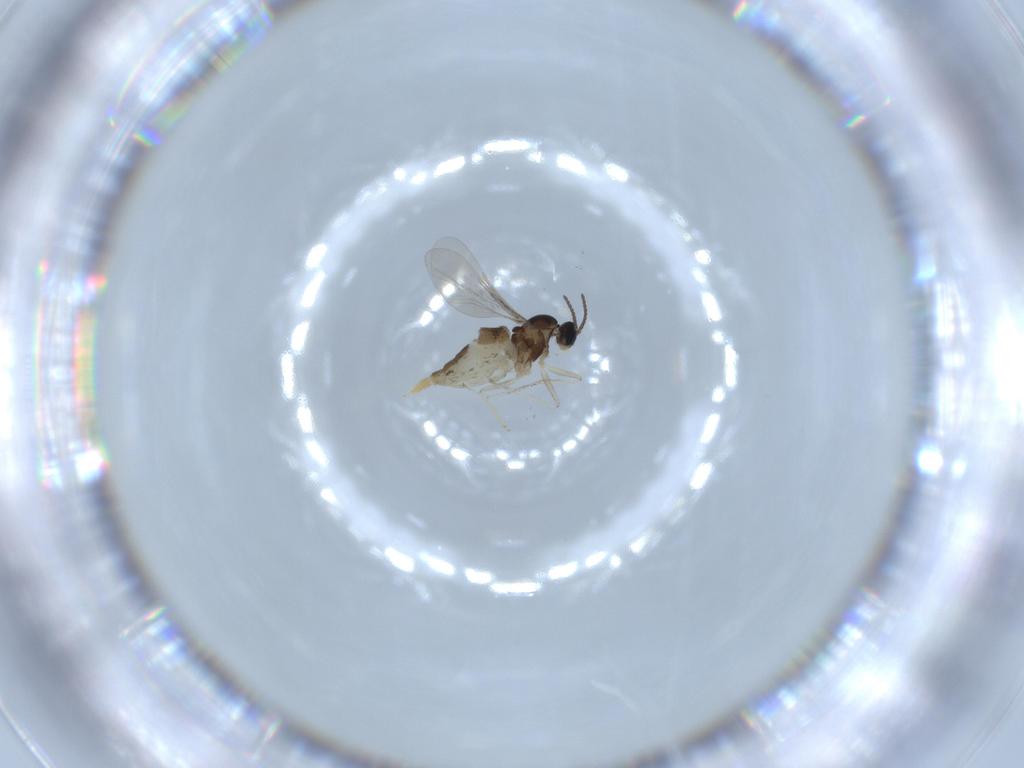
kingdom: Animalia
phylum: Arthropoda
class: Insecta
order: Diptera
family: Cecidomyiidae
